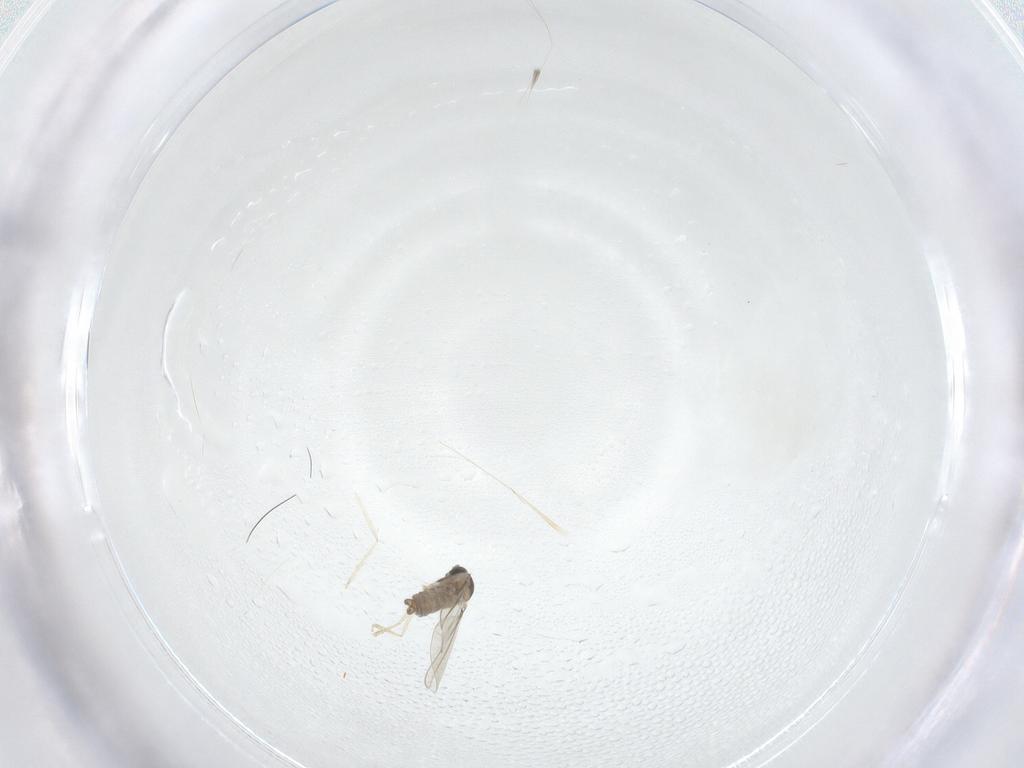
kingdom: Animalia
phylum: Arthropoda
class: Insecta
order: Diptera
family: Cecidomyiidae
